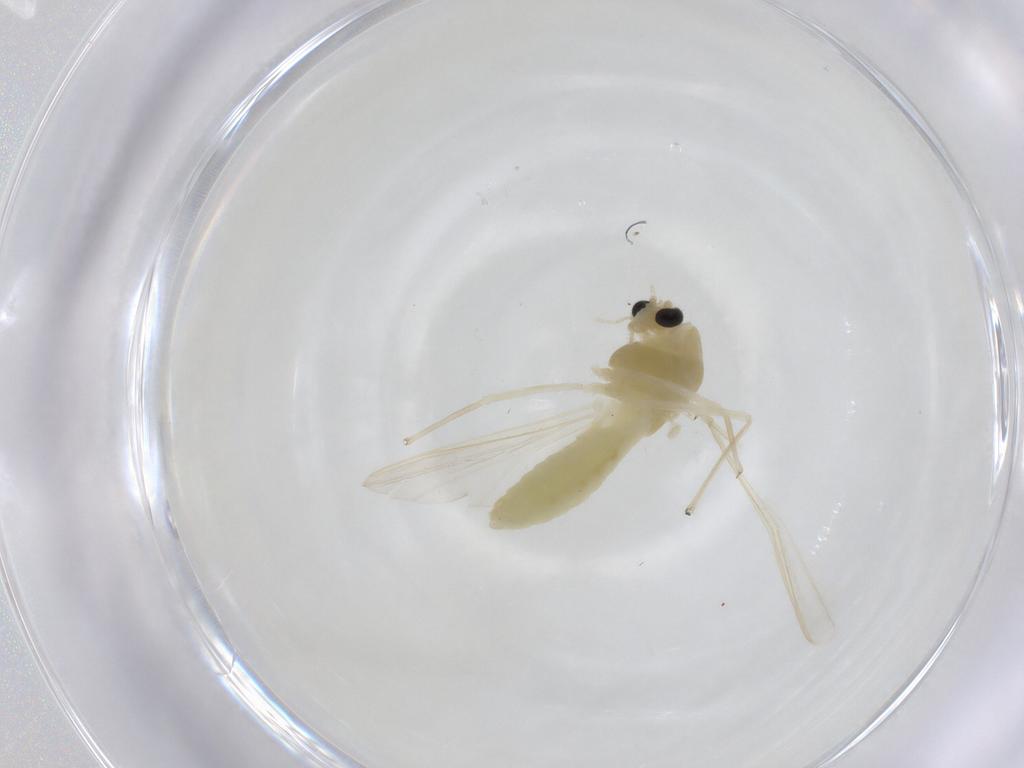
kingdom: Animalia
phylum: Arthropoda
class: Insecta
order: Diptera
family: Chironomidae
